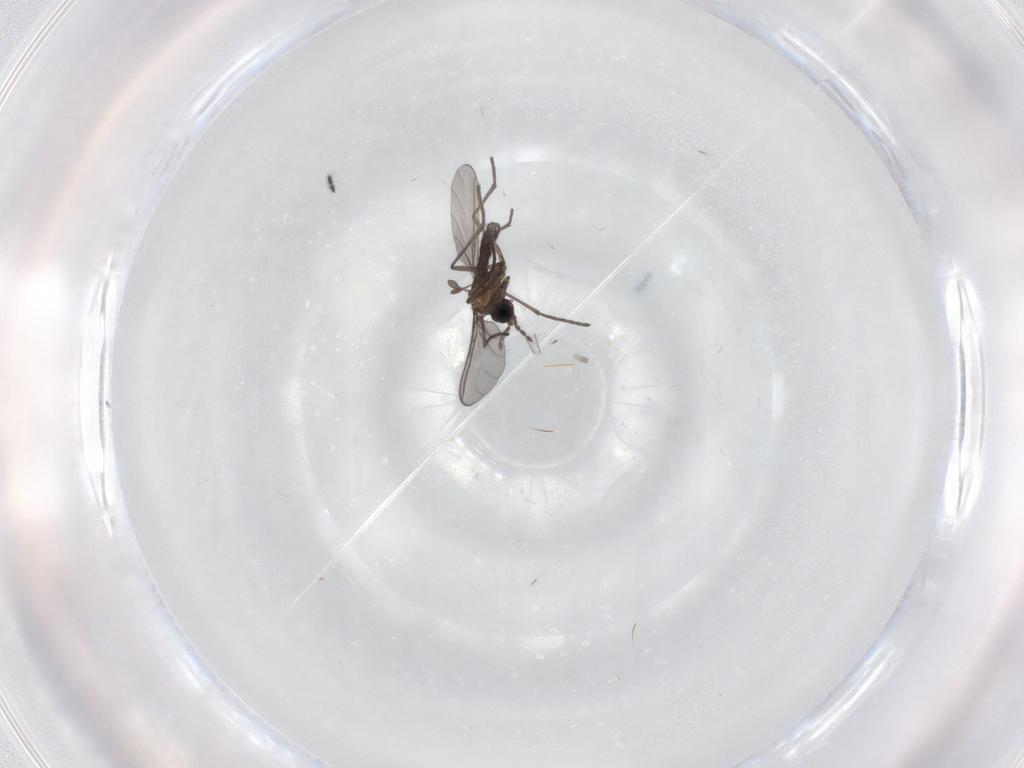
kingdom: Animalia
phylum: Arthropoda
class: Insecta
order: Diptera
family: Sciaridae
